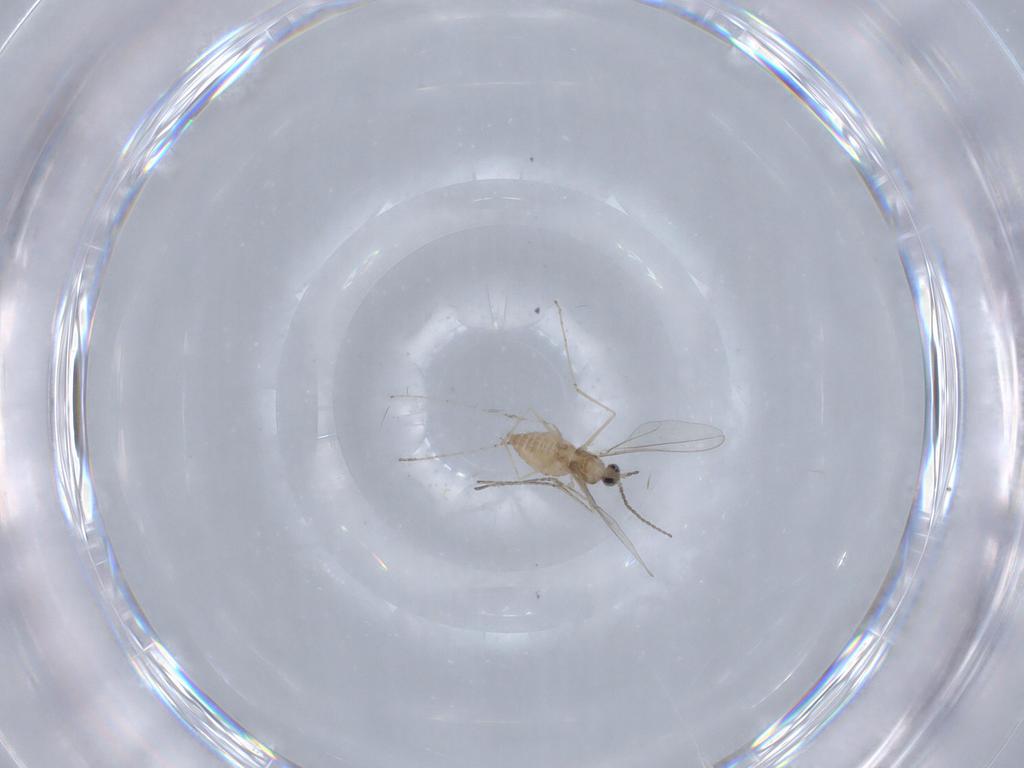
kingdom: Animalia
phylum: Arthropoda
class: Insecta
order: Diptera
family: Cecidomyiidae
